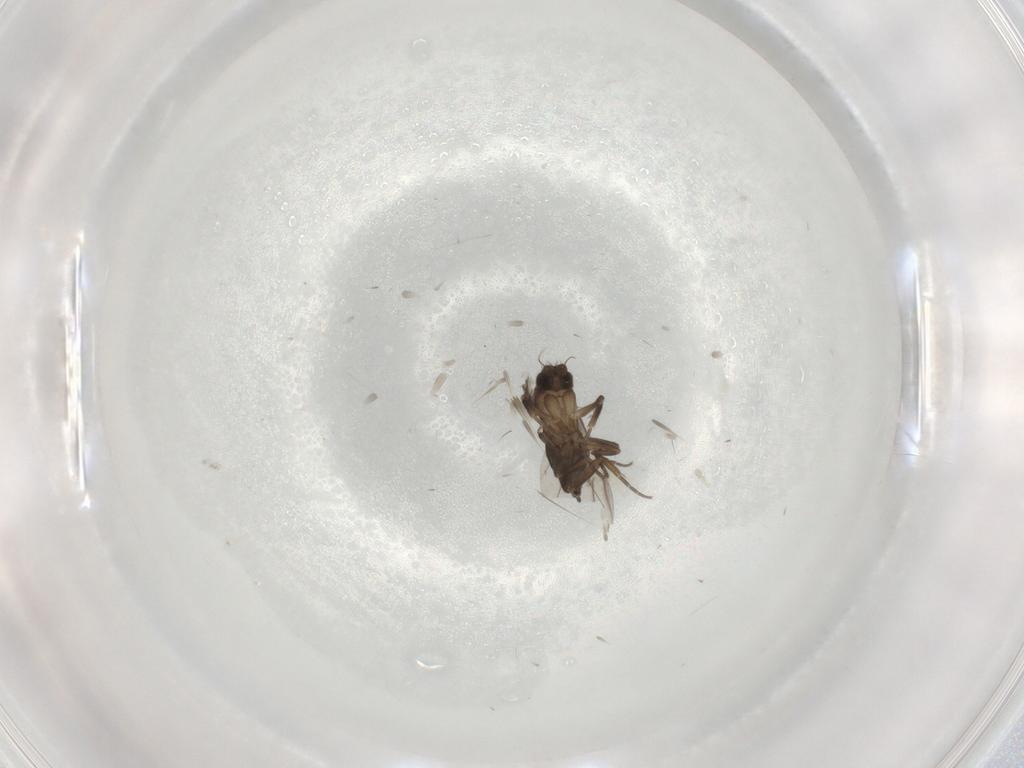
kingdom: Animalia
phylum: Arthropoda
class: Insecta
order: Diptera
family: Phoridae
